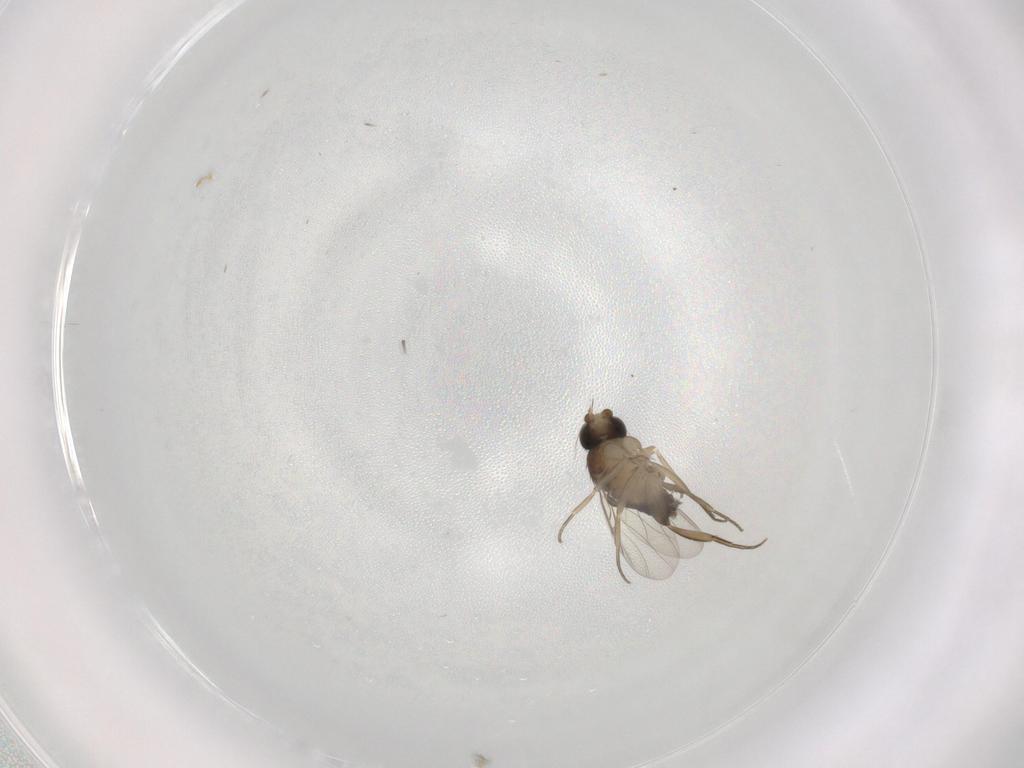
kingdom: Animalia
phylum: Arthropoda
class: Insecta
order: Diptera
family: Phoridae
